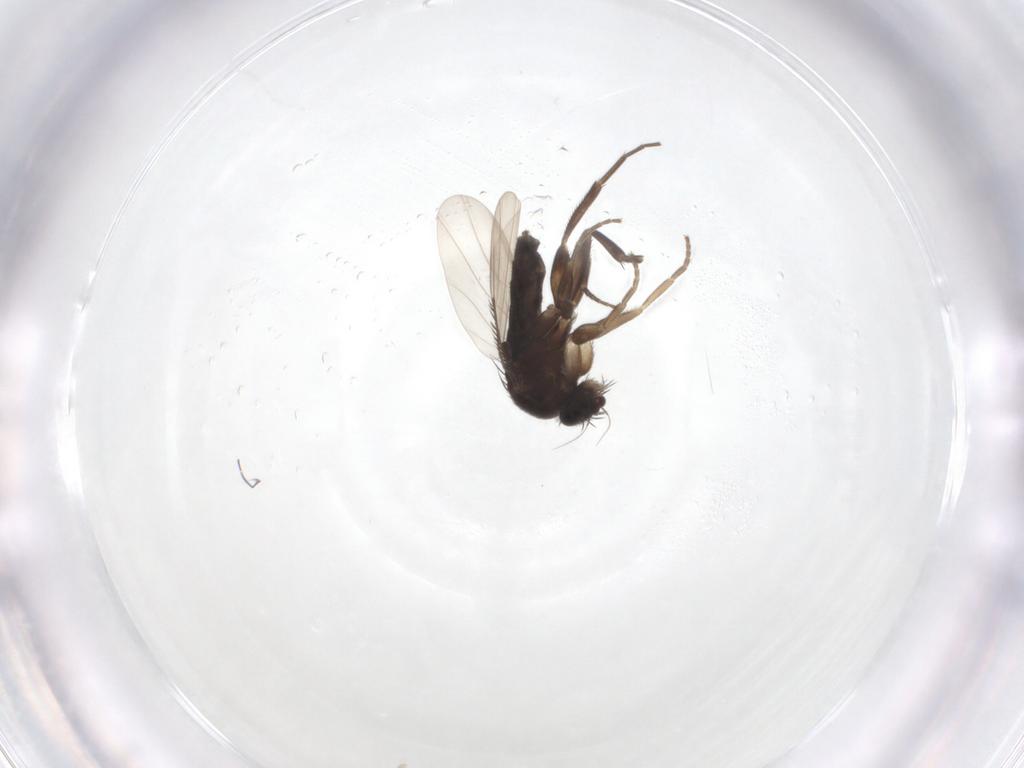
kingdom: Animalia
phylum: Arthropoda
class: Insecta
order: Diptera
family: Phoridae
